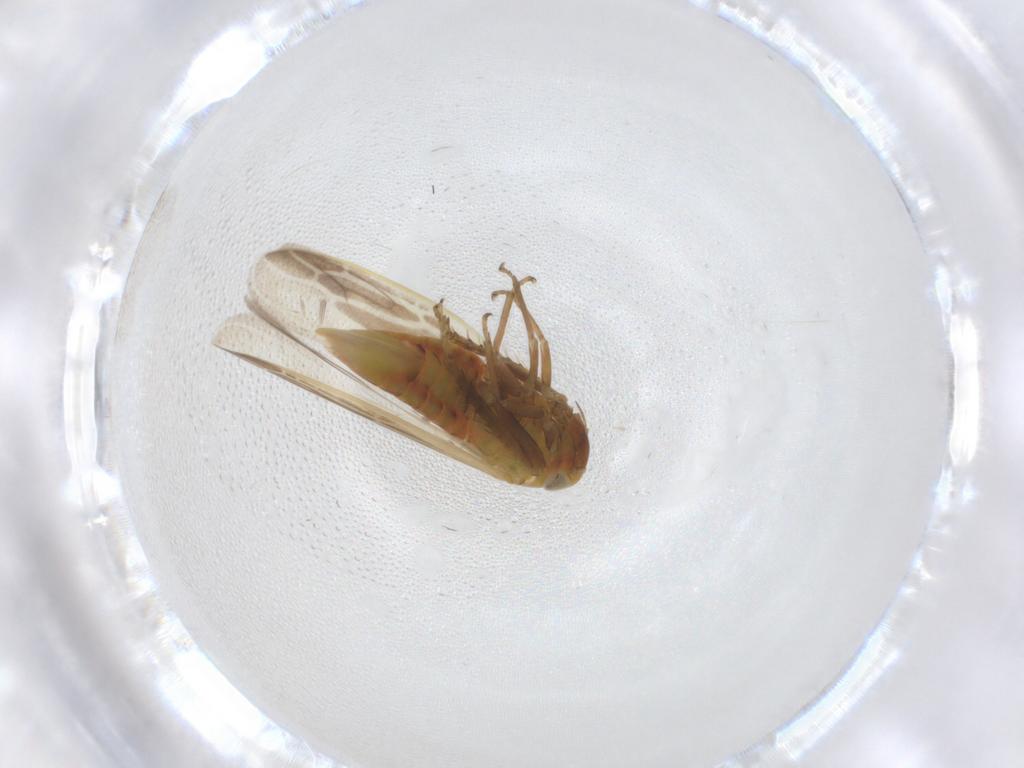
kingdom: Animalia
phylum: Arthropoda
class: Insecta
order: Hemiptera
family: Cicadellidae
